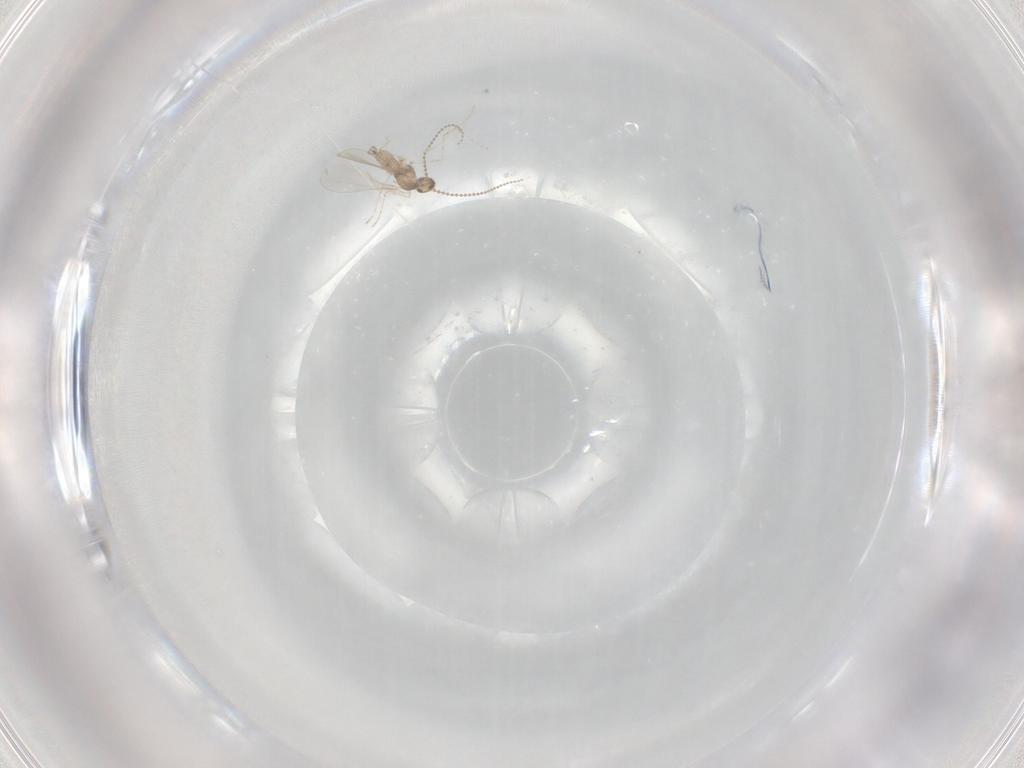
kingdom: Animalia
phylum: Arthropoda
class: Insecta
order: Diptera
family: Cecidomyiidae
